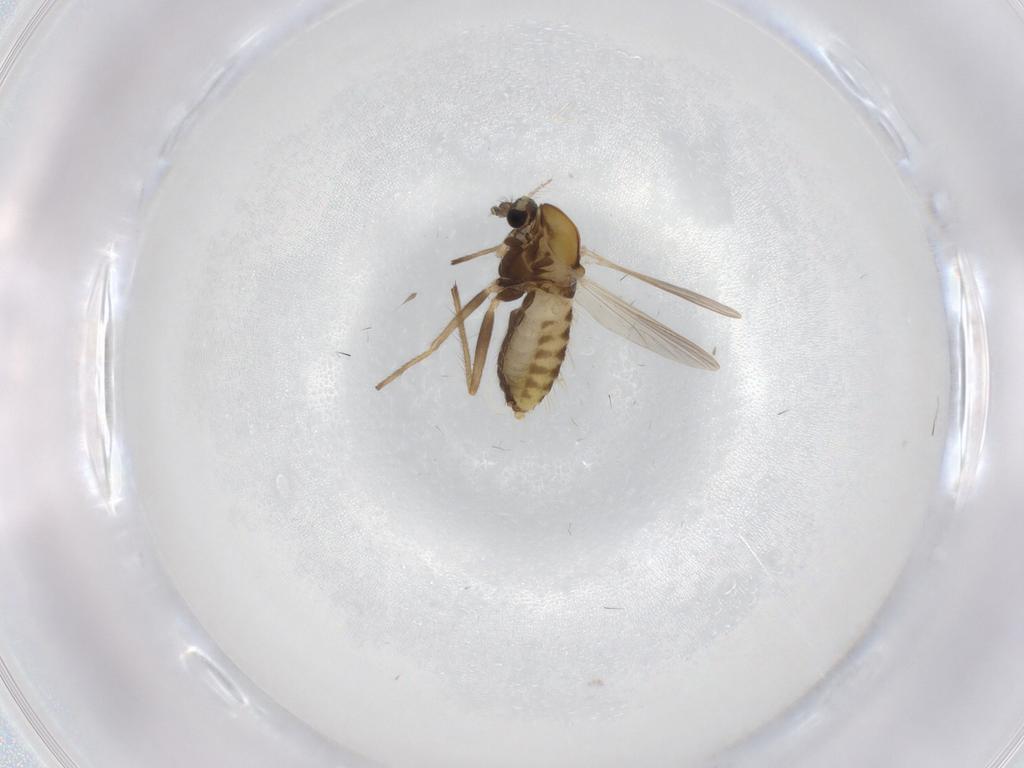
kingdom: Animalia
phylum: Arthropoda
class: Insecta
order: Diptera
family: Chironomidae
